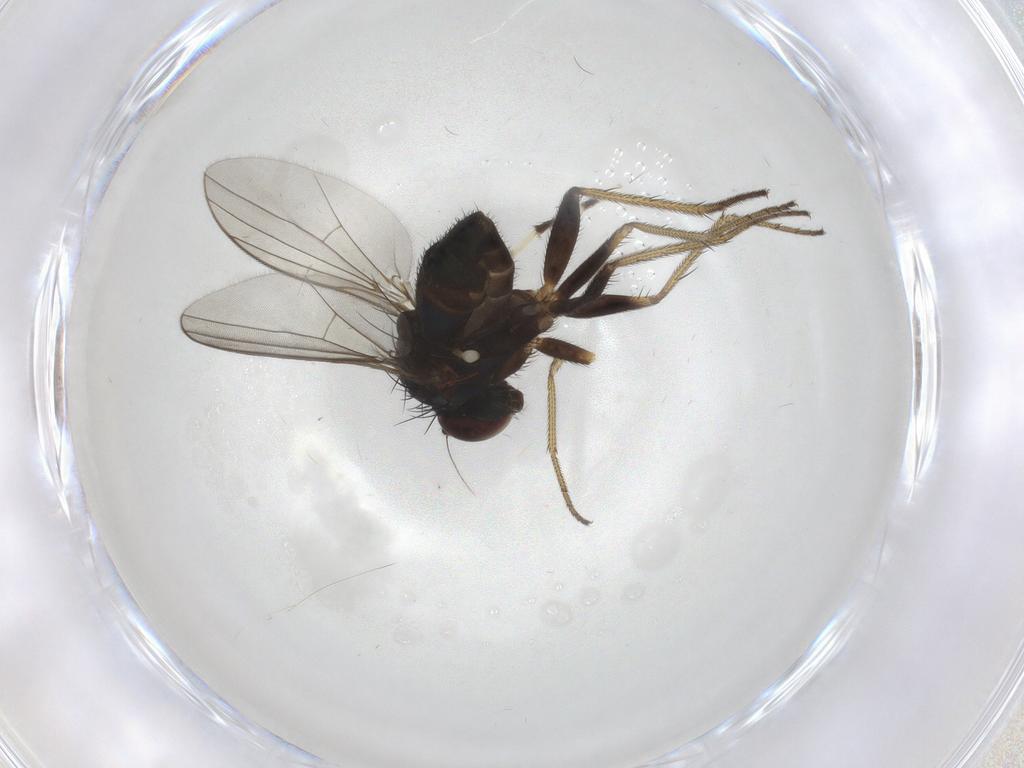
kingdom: Animalia
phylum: Arthropoda
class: Insecta
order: Diptera
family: Chironomidae
